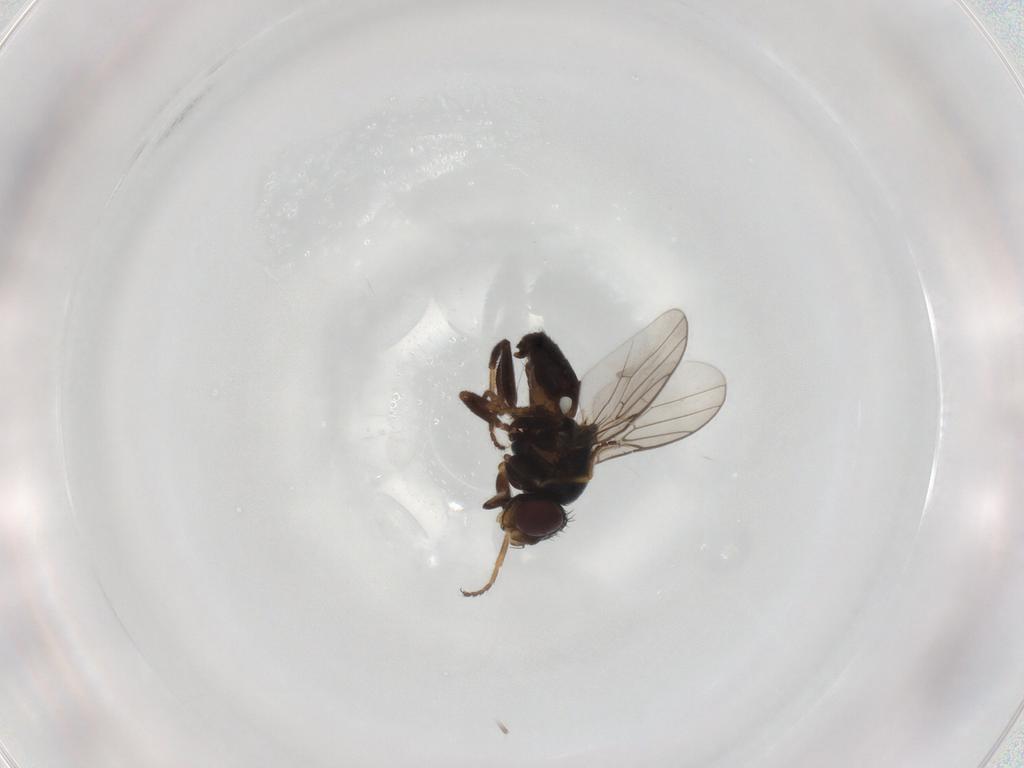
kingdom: Animalia
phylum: Arthropoda
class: Insecta
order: Diptera
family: Chloropidae
